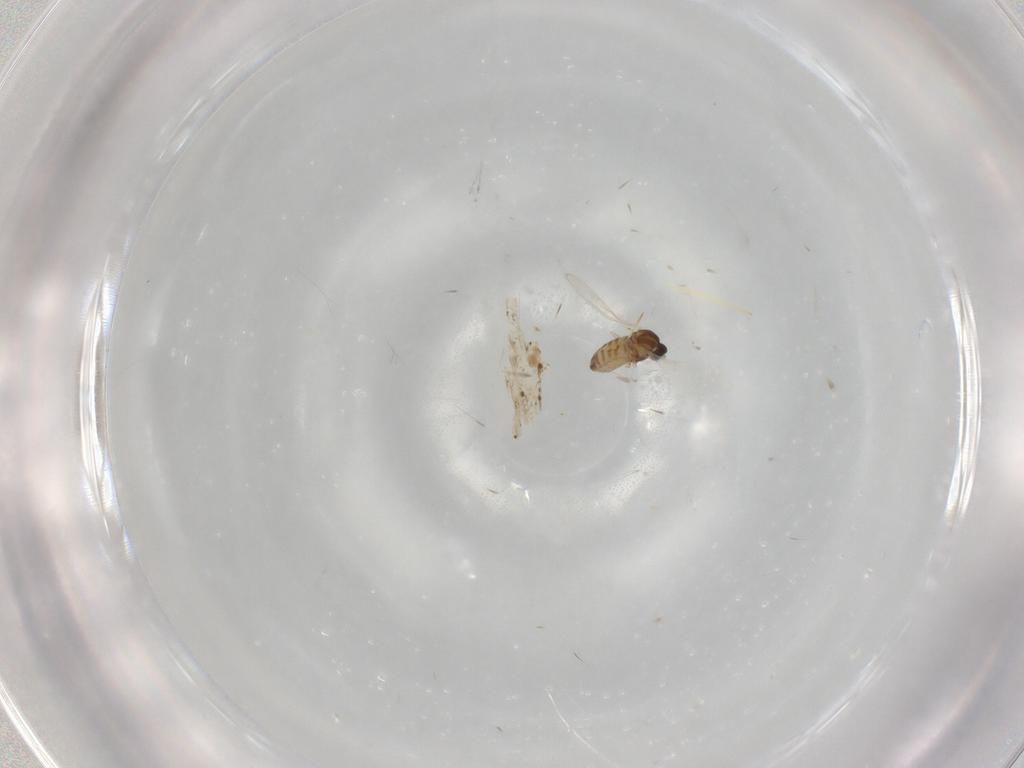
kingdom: Animalia
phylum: Arthropoda
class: Insecta
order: Diptera
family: Cecidomyiidae
